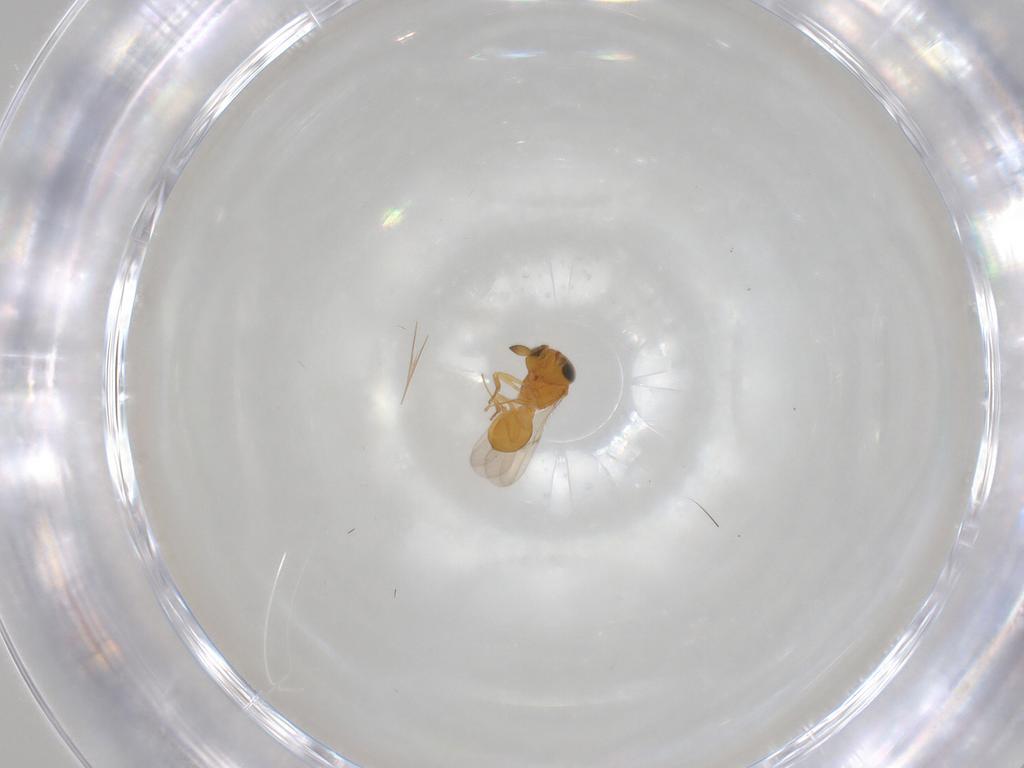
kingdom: Animalia
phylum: Arthropoda
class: Insecta
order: Hymenoptera
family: Scelionidae
